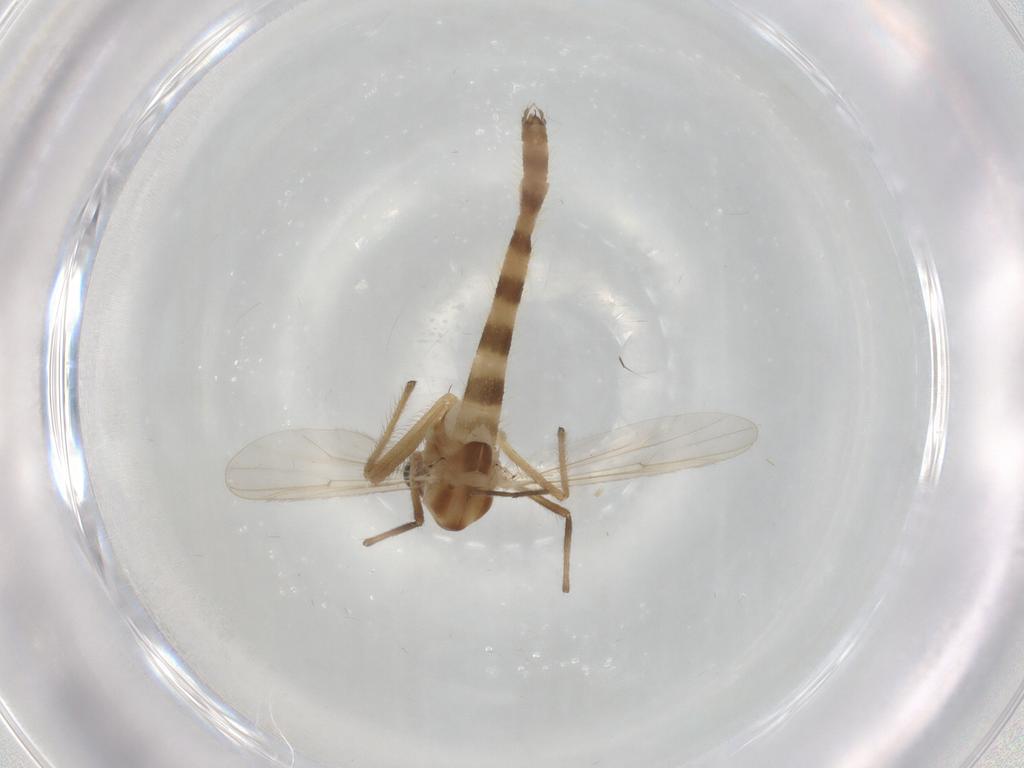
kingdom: Animalia
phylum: Arthropoda
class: Insecta
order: Diptera
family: Chironomidae
